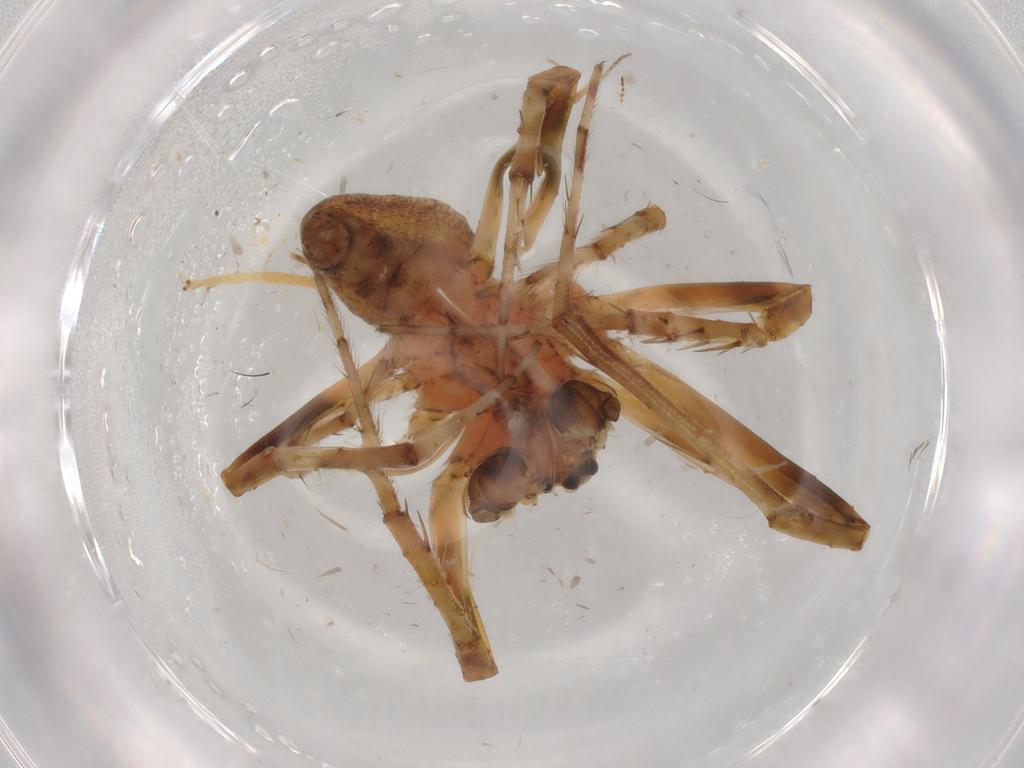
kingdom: Animalia
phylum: Arthropoda
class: Arachnida
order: Araneae
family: Araneidae
